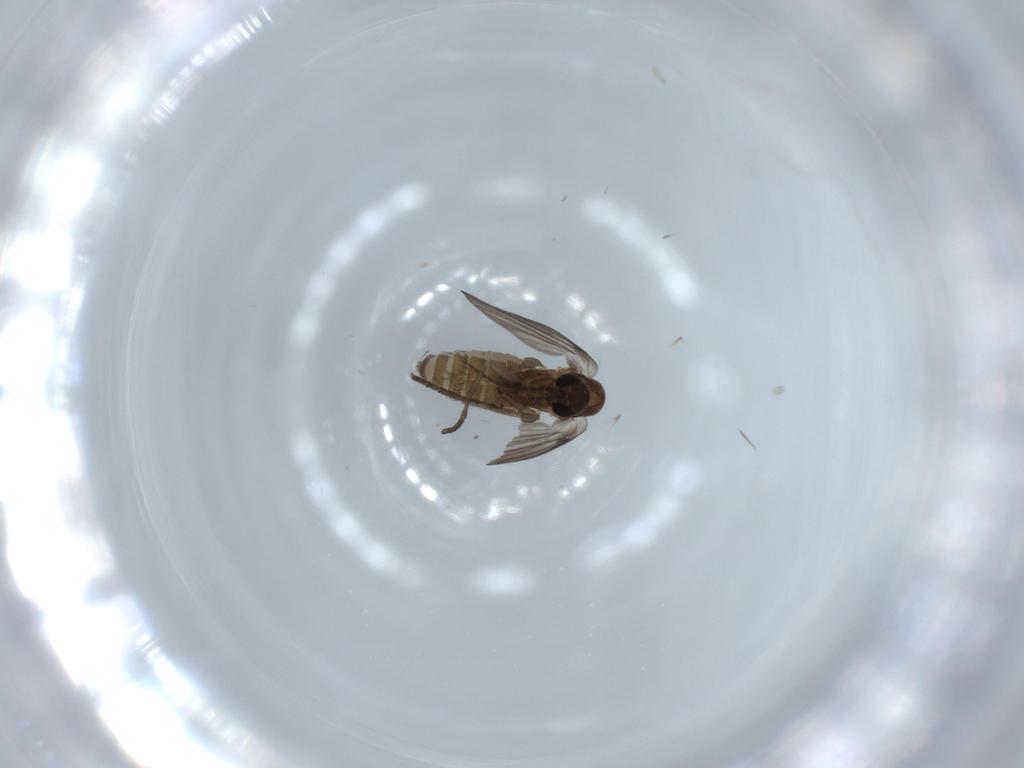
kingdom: Animalia
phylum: Arthropoda
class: Insecta
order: Diptera
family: Psychodidae
